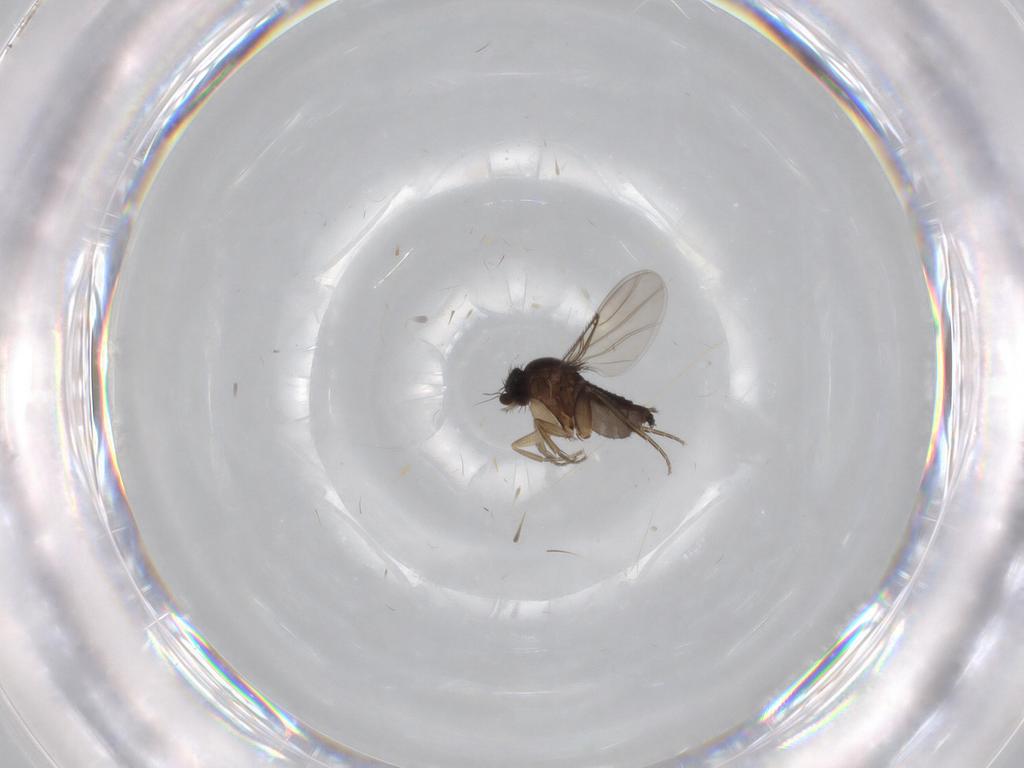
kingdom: Animalia
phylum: Arthropoda
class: Insecta
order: Diptera
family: Phoridae
